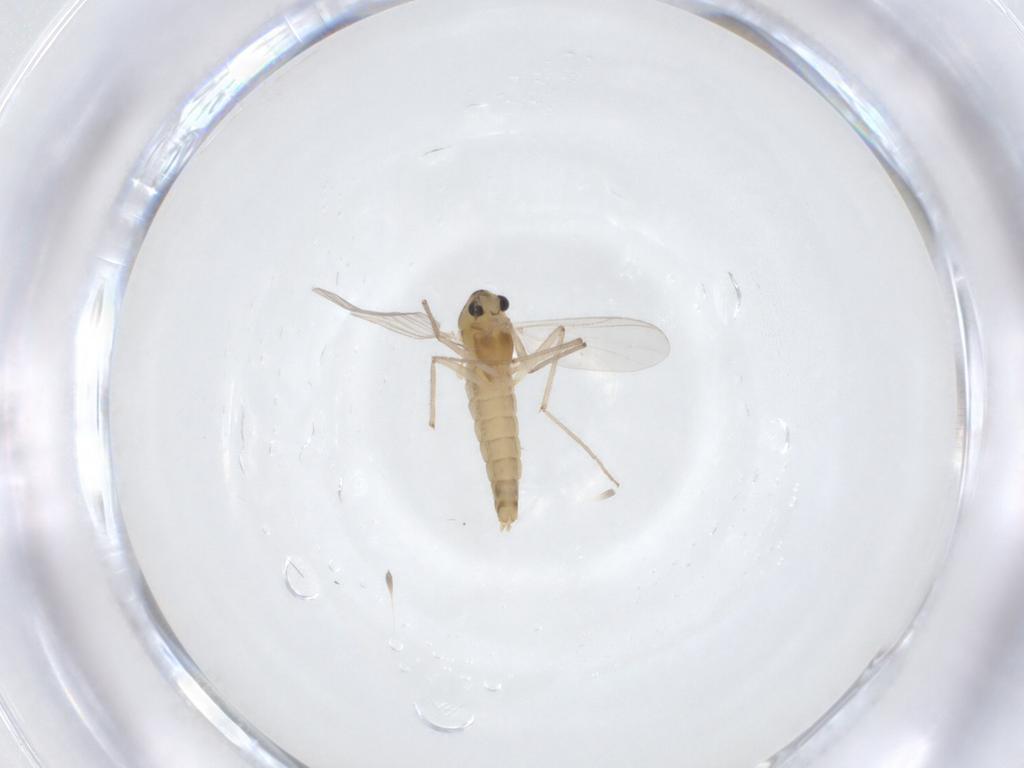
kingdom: Animalia
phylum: Arthropoda
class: Insecta
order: Diptera
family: Chironomidae
